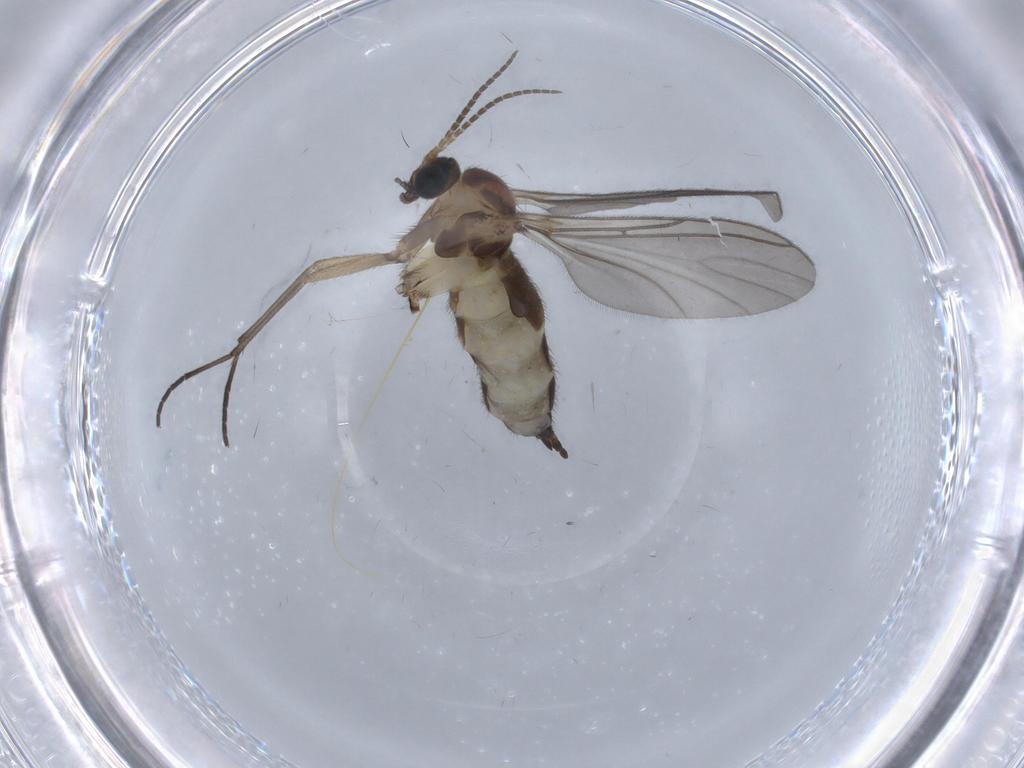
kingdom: Animalia
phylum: Arthropoda
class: Insecta
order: Diptera
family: Sciaridae
